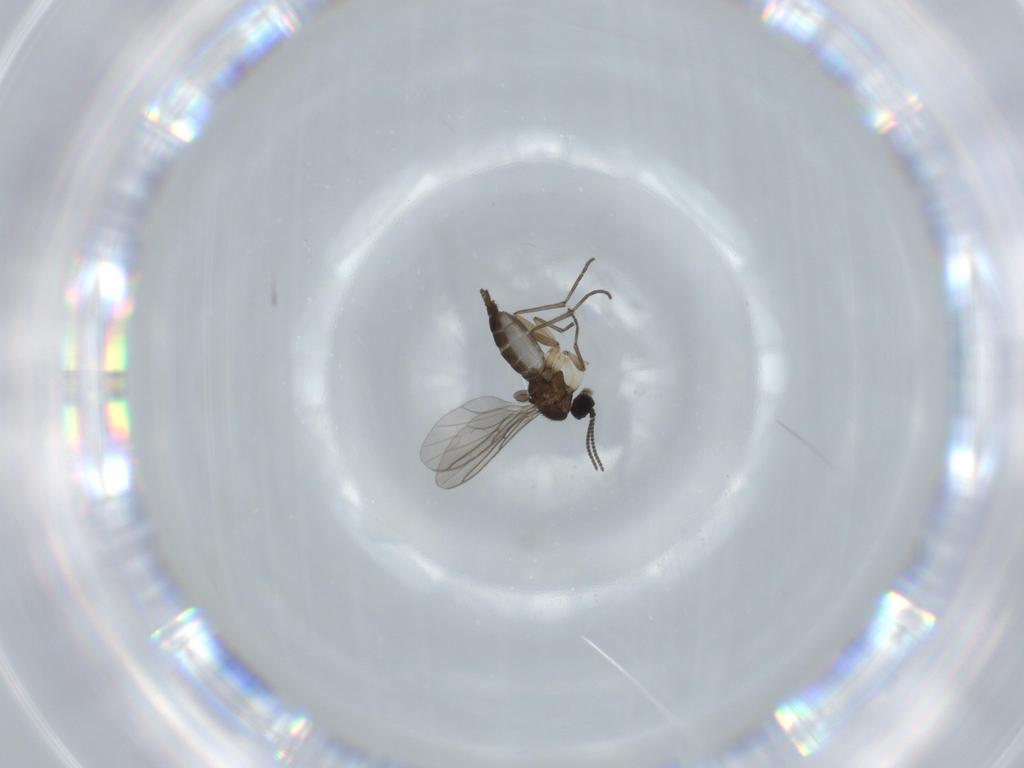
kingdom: Animalia
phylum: Arthropoda
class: Insecta
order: Diptera
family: Sciaridae
